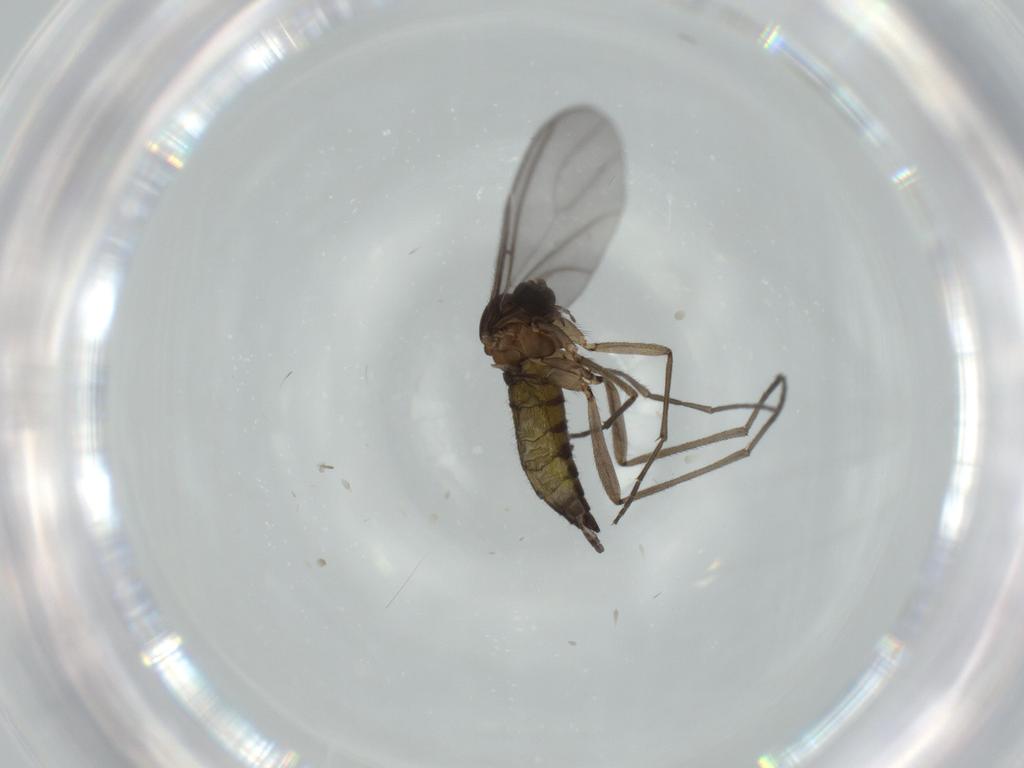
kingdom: Animalia
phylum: Arthropoda
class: Insecta
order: Diptera
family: Sciaridae
